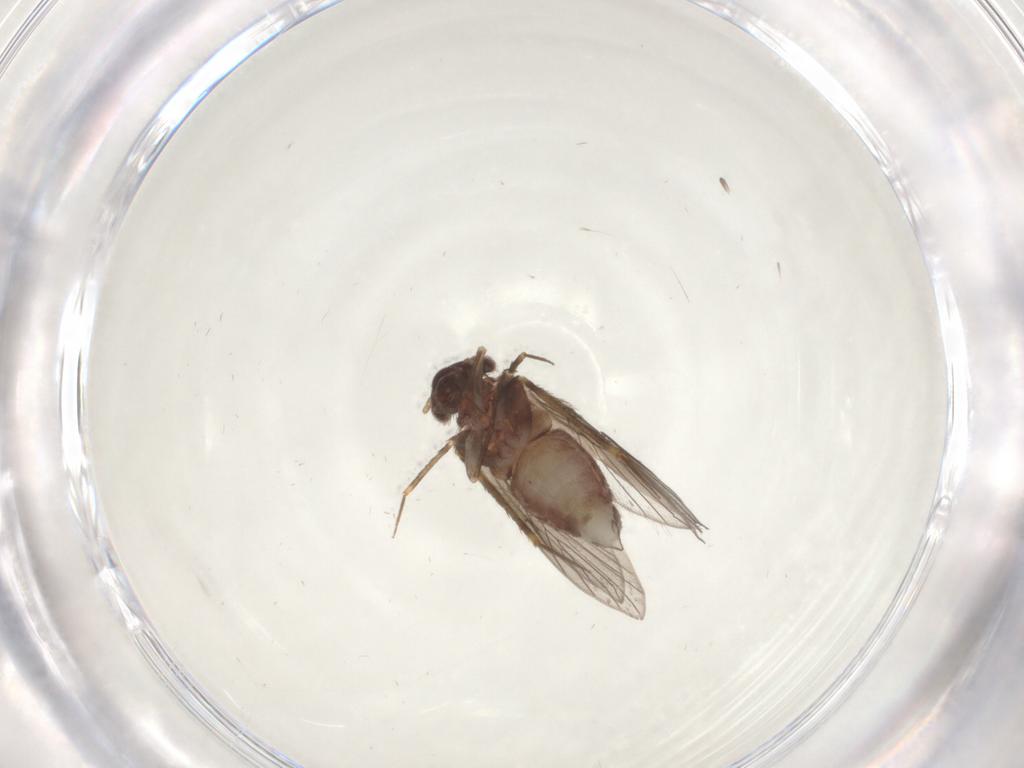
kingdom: Animalia
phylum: Arthropoda
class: Insecta
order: Psocodea
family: Lepidopsocidae
